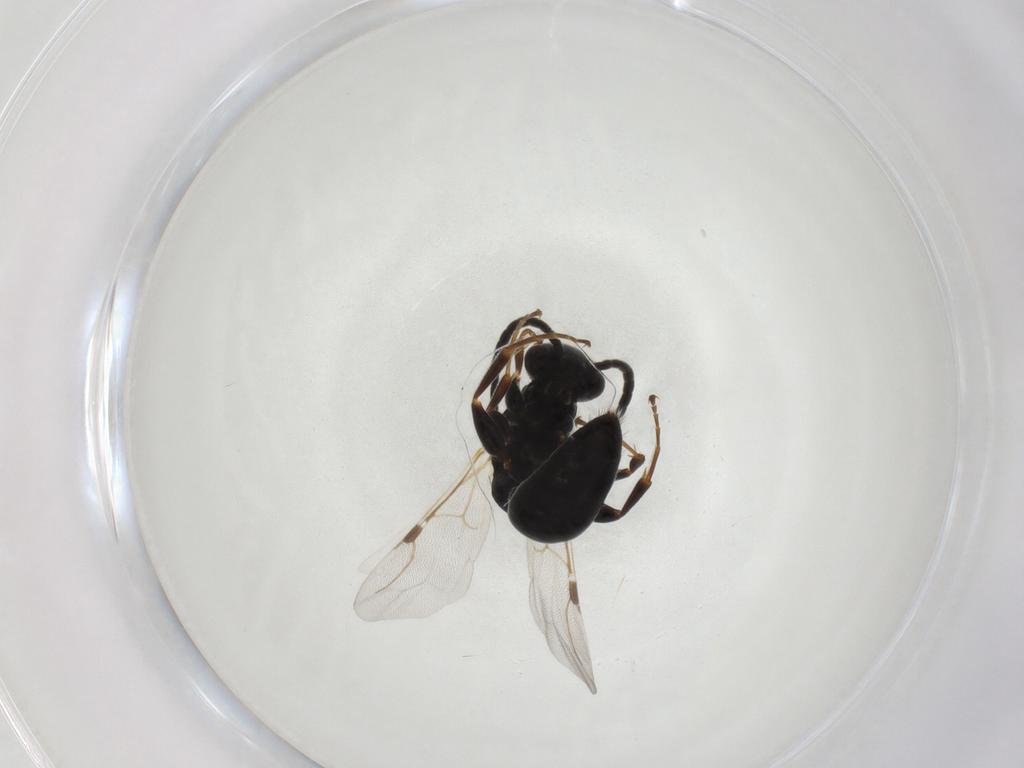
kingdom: Animalia
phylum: Arthropoda
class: Insecta
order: Hymenoptera
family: Bethylidae
